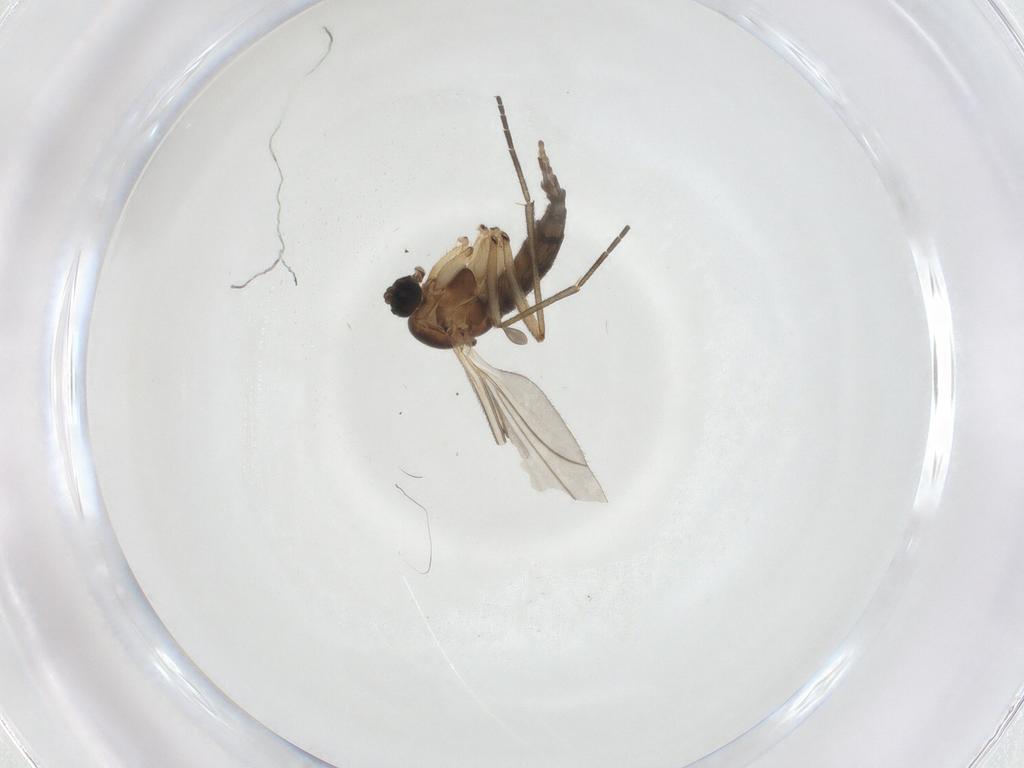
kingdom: Animalia
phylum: Arthropoda
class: Insecta
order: Diptera
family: Sciaridae
